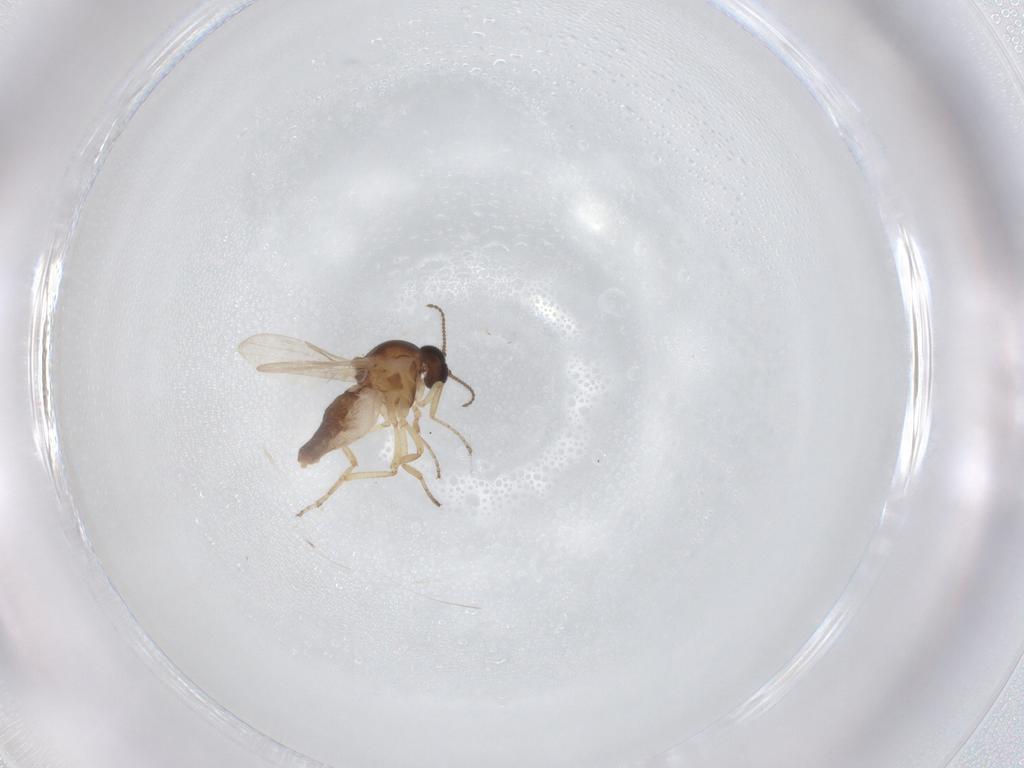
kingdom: Animalia
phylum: Arthropoda
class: Insecta
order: Diptera
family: Ceratopogonidae
